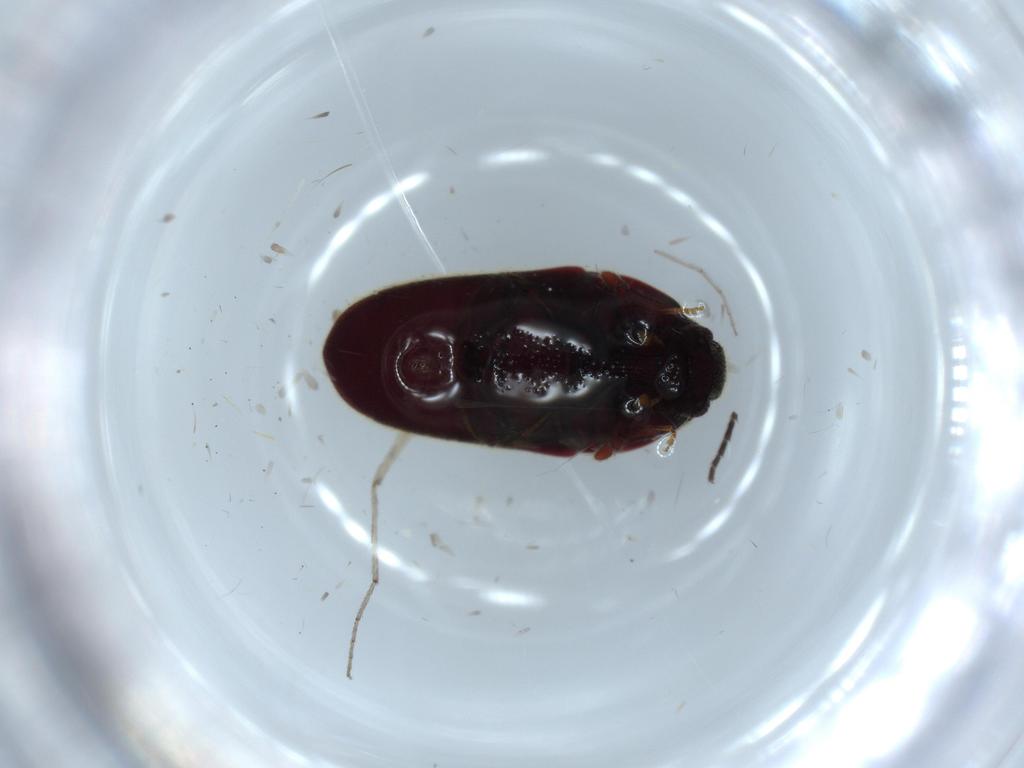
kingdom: Animalia
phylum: Arthropoda
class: Insecta
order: Coleoptera
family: Throscidae
